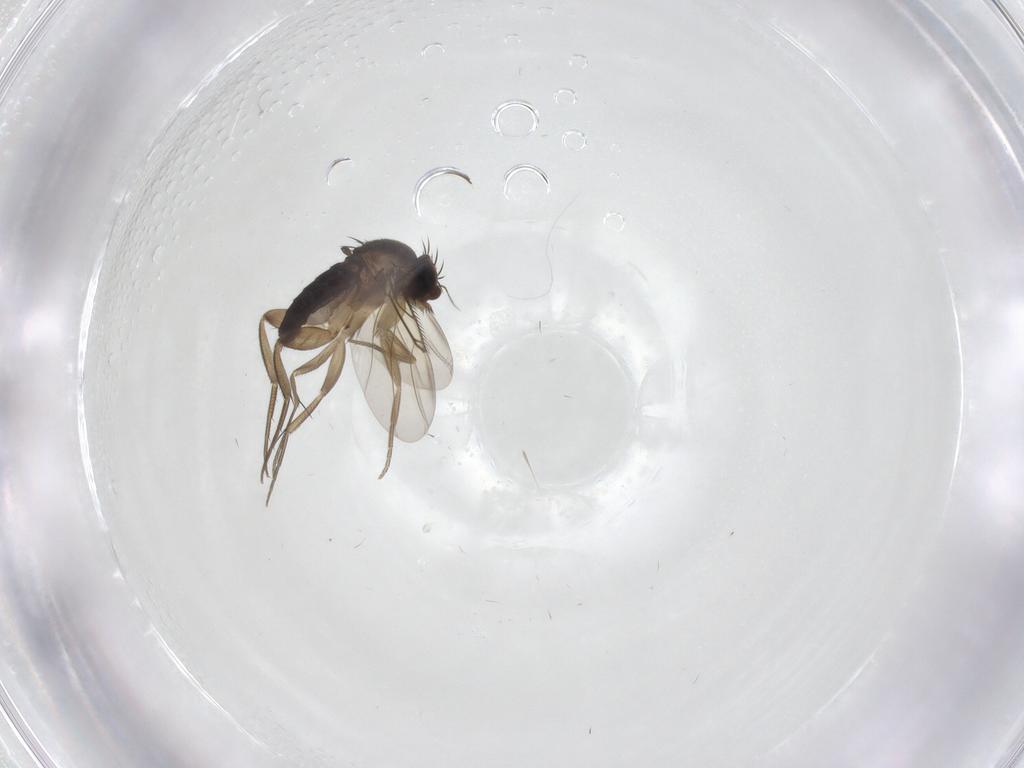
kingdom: Animalia
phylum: Arthropoda
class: Insecta
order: Diptera
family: Phoridae
